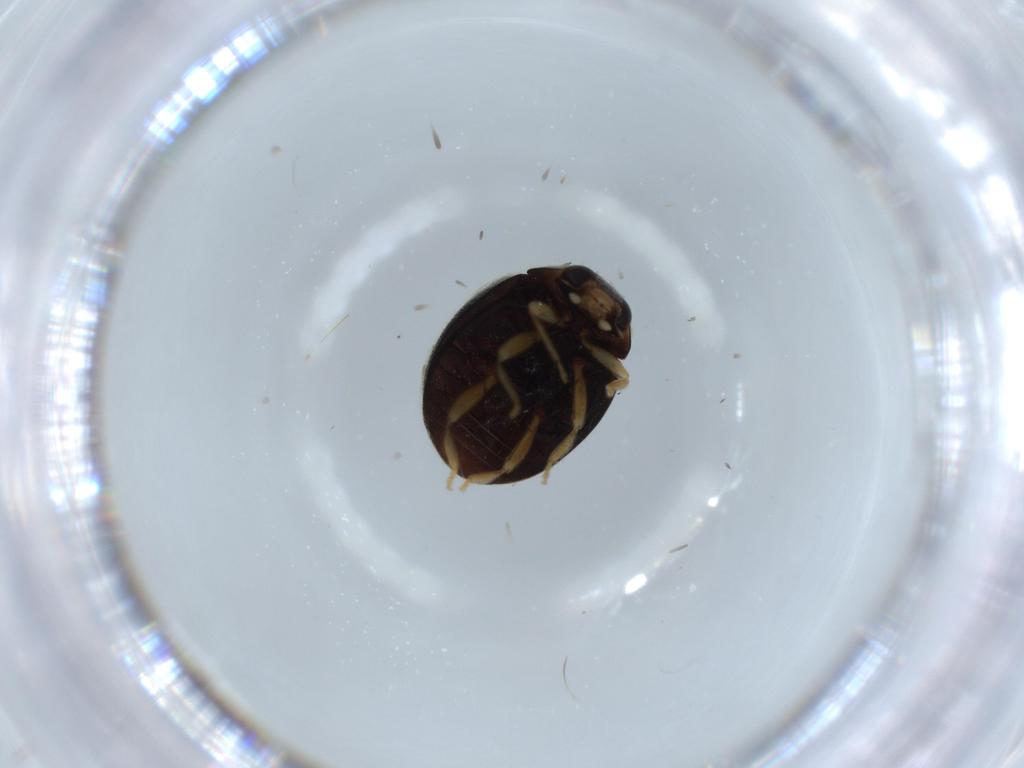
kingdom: Animalia
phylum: Arthropoda
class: Insecta
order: Coleoptera
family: Coccinellidae
